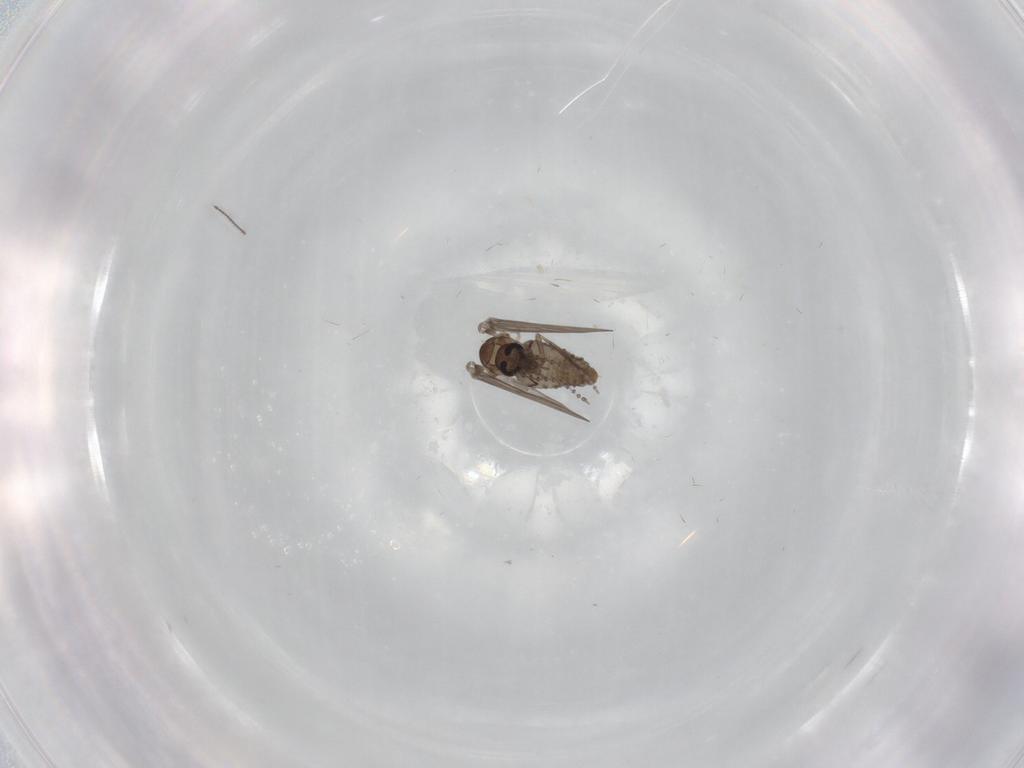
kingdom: Animalia
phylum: Arthropoda
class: Insecta
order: Diptera
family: Psychodidae
